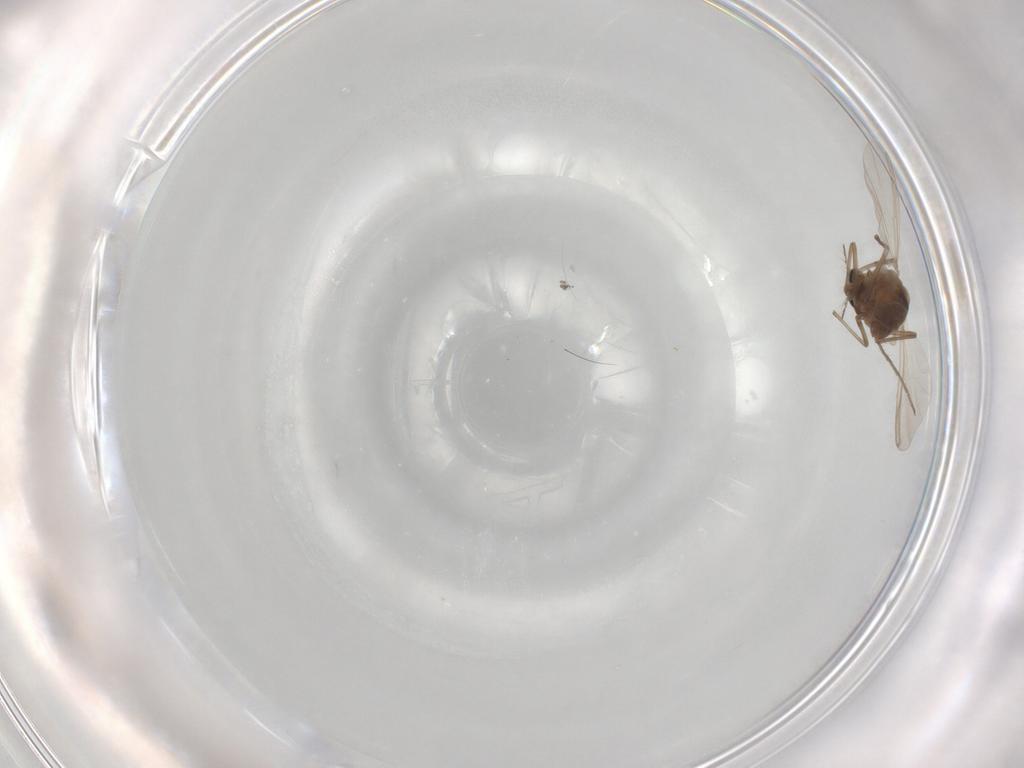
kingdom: Animalia
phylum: Arthropoda
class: Insecta
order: Diptera
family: Chironomidae
